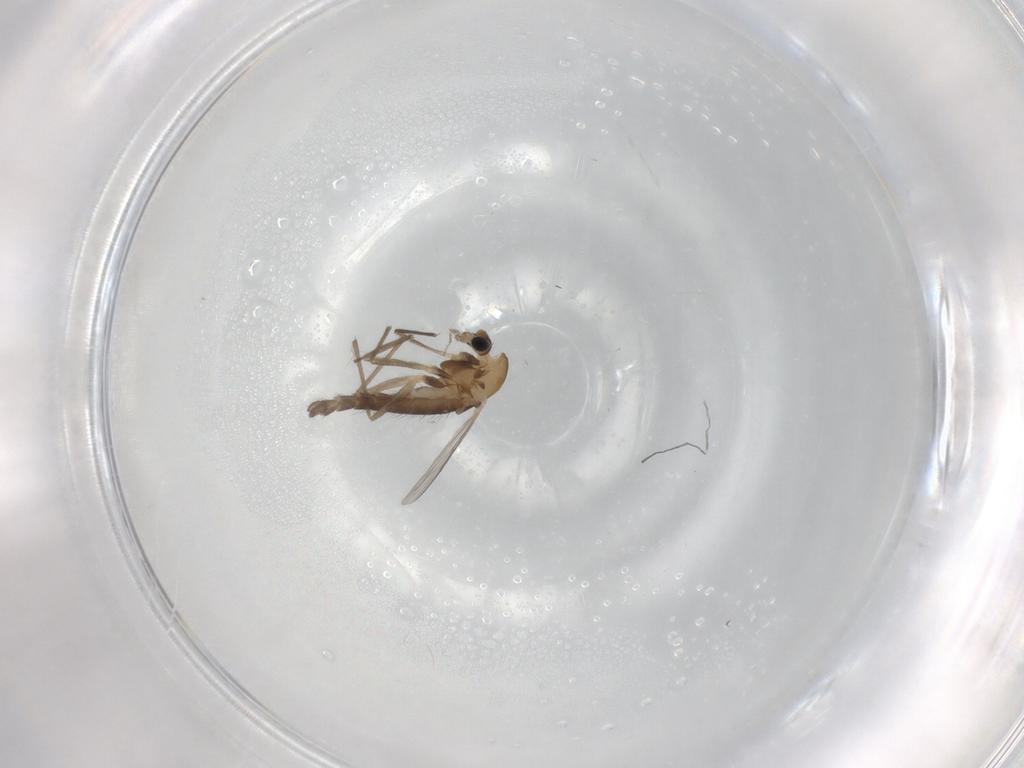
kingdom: Animalia
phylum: Arthropoda
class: Insecta
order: Diptera
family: Chironomidae
